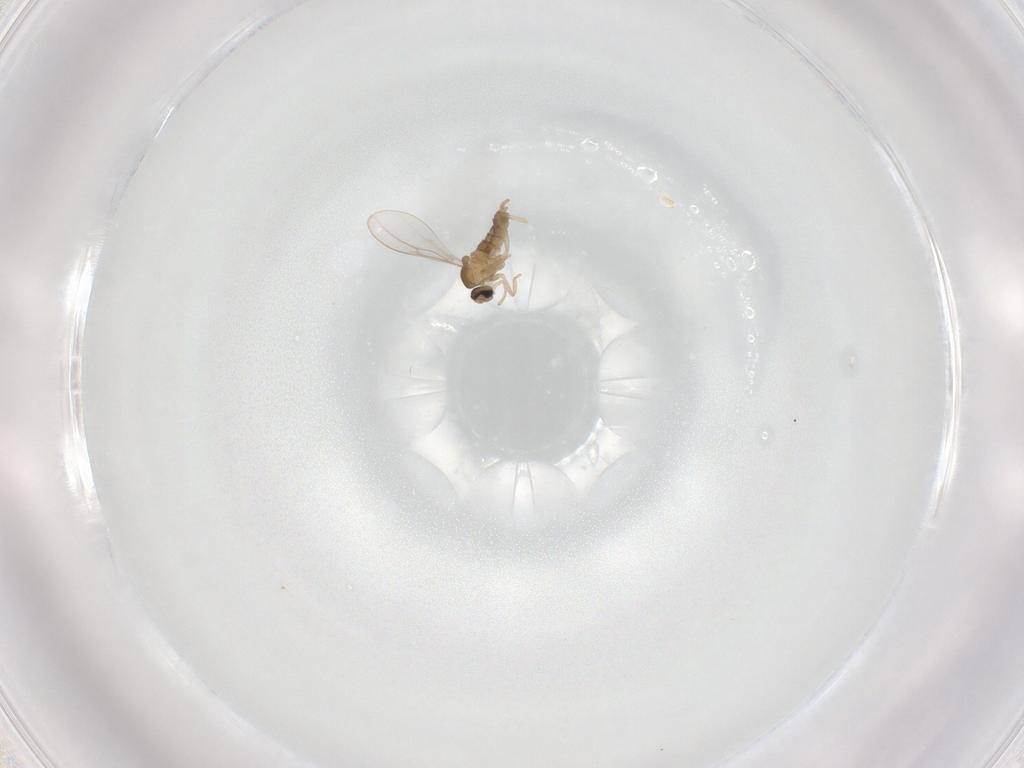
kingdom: Animalia
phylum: Arthropoda
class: Insecta
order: Diptera
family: Cecidomyiidae
